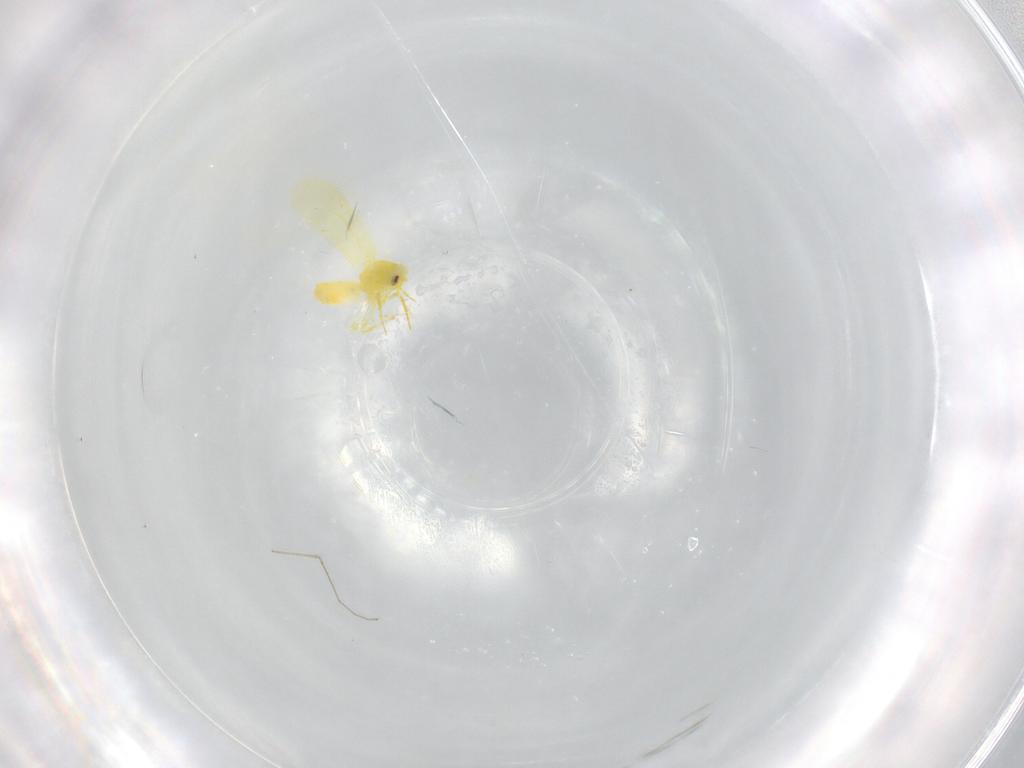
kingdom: Animalia
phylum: Arthropoda
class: Insecta
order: Hemiptera
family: Aleyrodidae
